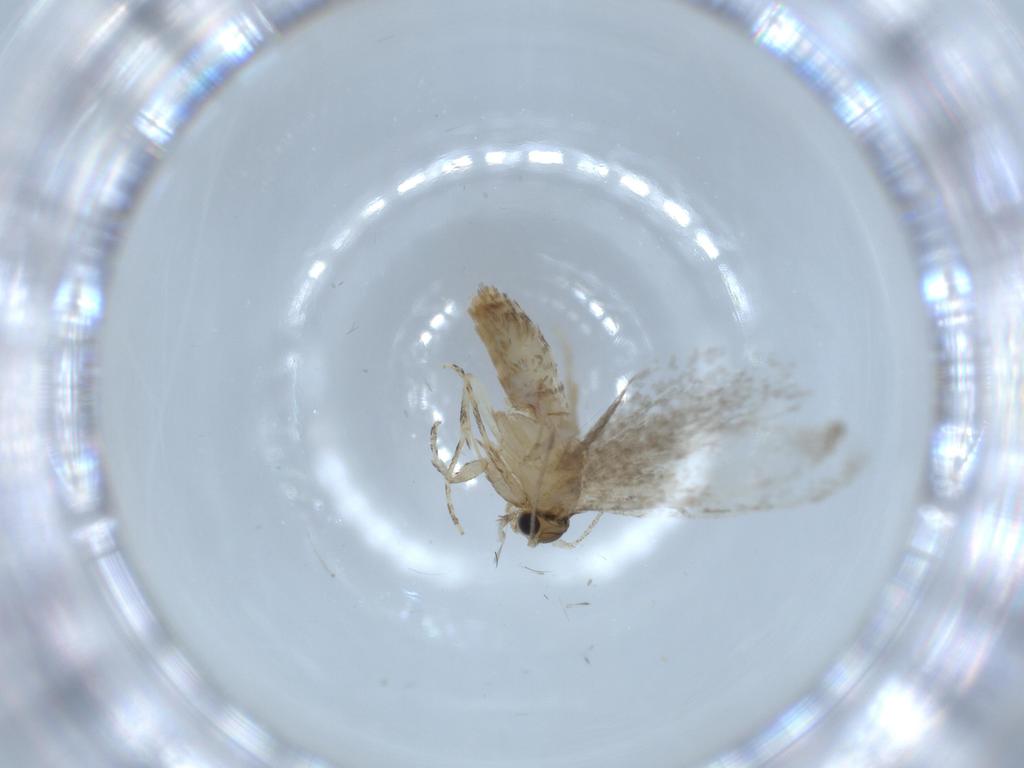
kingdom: Animalia
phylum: Arthropoda
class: Insecta
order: Lepidoptera
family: Tineidae
